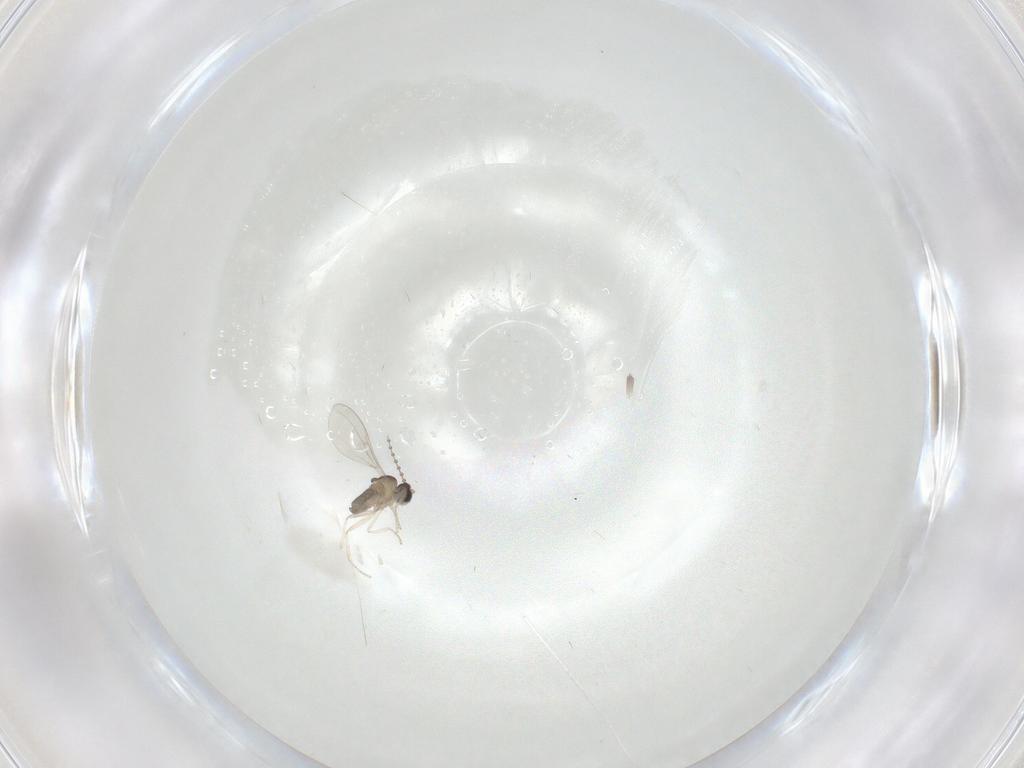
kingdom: Animalia
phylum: Arthropoda
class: Insecta
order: Diptera
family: Cecidomyiidae
